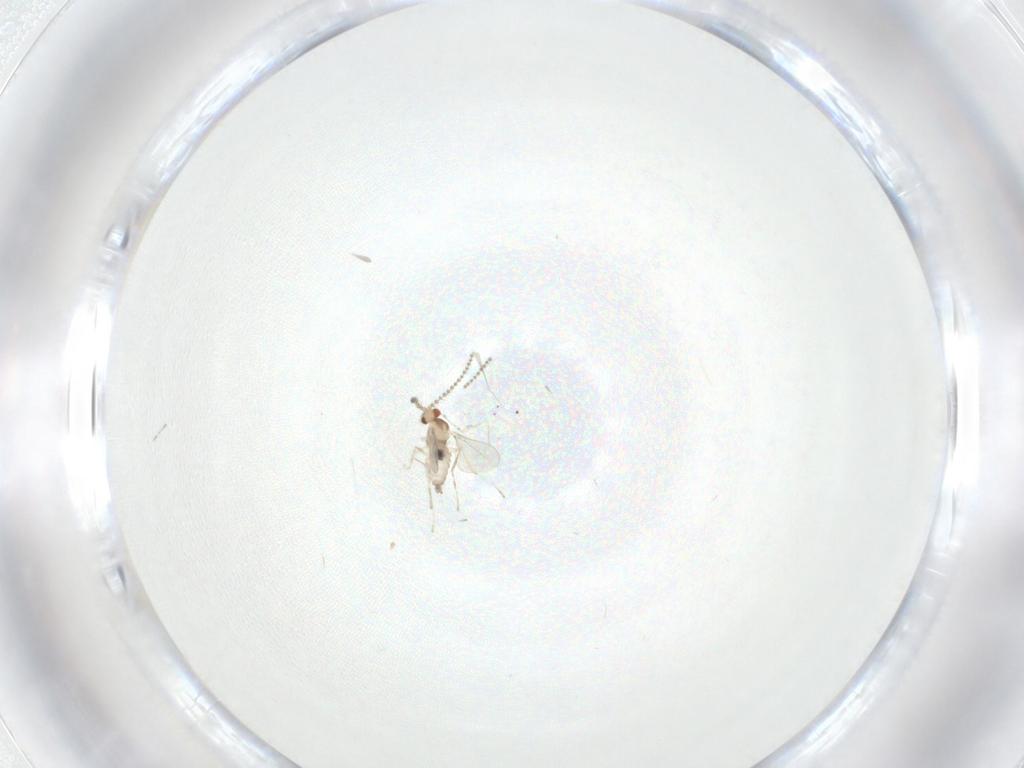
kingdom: Animalia
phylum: Arthropoda
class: Insecta
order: Diptera
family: Cecidomyiidae
